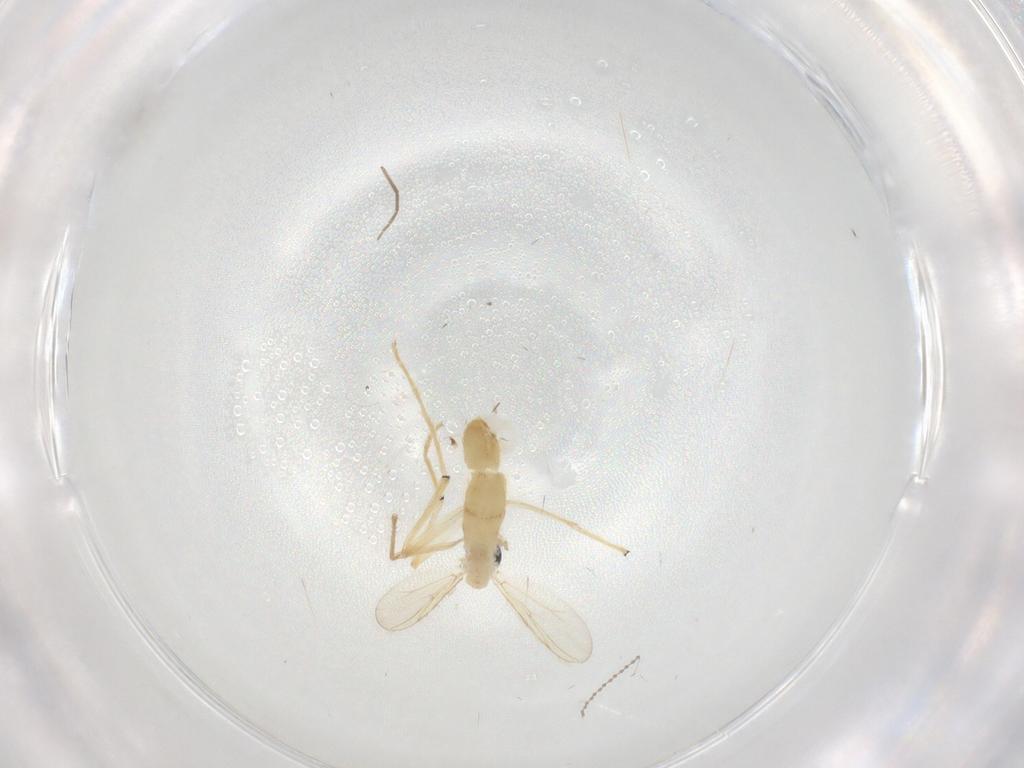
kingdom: Animalia
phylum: Arthropoda
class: Insecta
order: Diptera
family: Chironomidae
